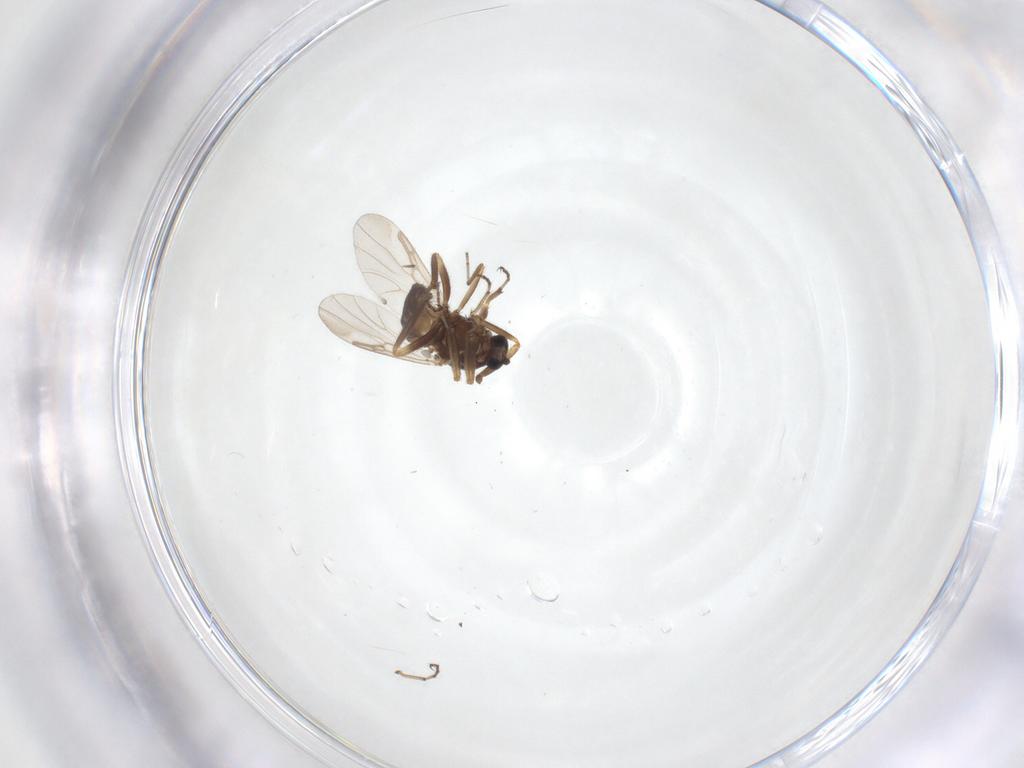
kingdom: Animalia
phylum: Arthropoda
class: Insecta
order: Diptera
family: Ceratopogonidae
